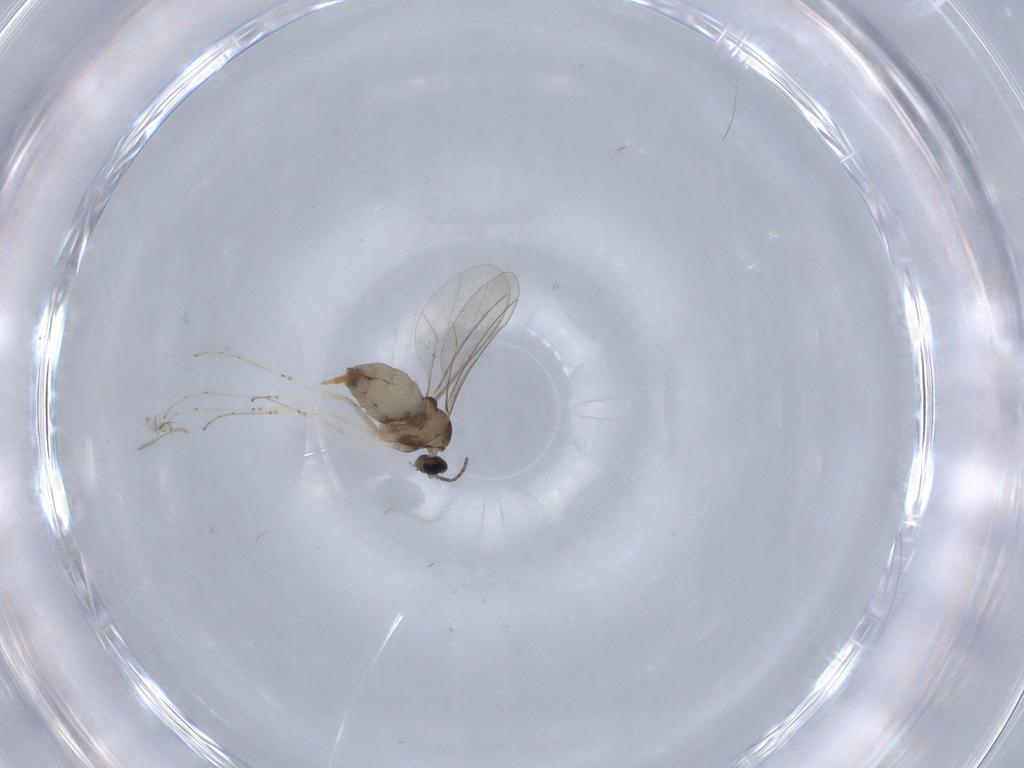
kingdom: Animalia
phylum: Arthropoda
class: Insecta
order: Diptera
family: Cecidomyiidae
